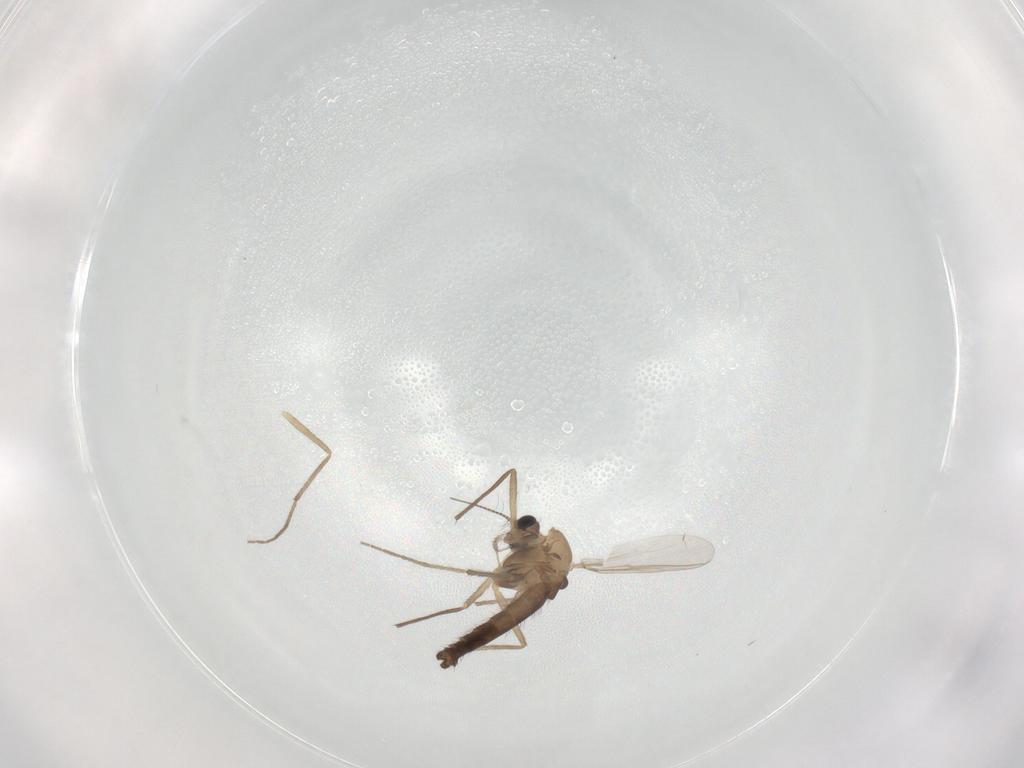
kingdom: Animalia
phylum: Arthropoda
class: Insecta
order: Diptera
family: Chironomidae
